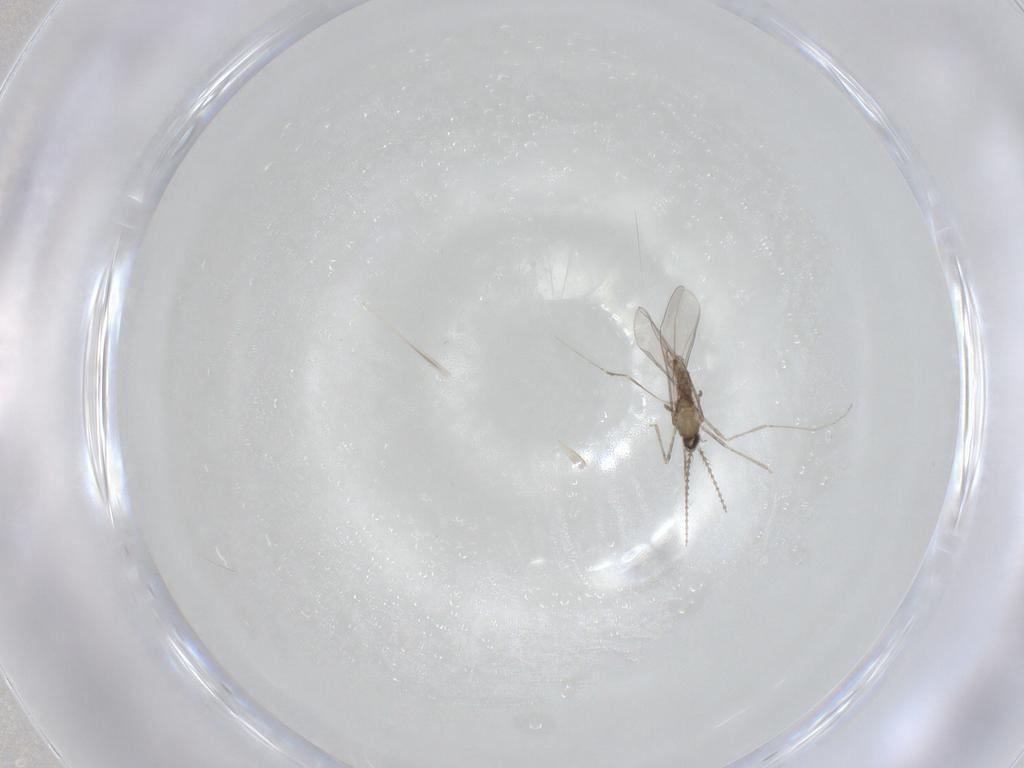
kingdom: Animalia
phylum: Arthropoda
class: Insecta
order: Diptera
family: Cecidomyiidae
